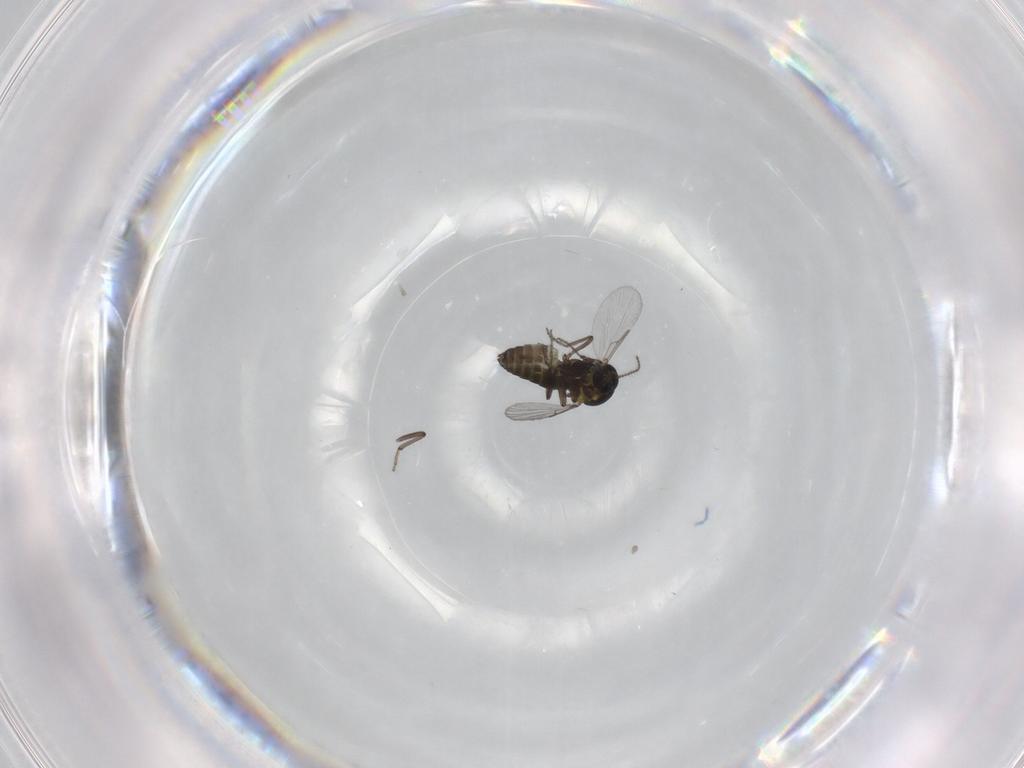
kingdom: Animalia
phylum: Arthropoda
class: Insecta
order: Diptera
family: Ceratopogonidae
